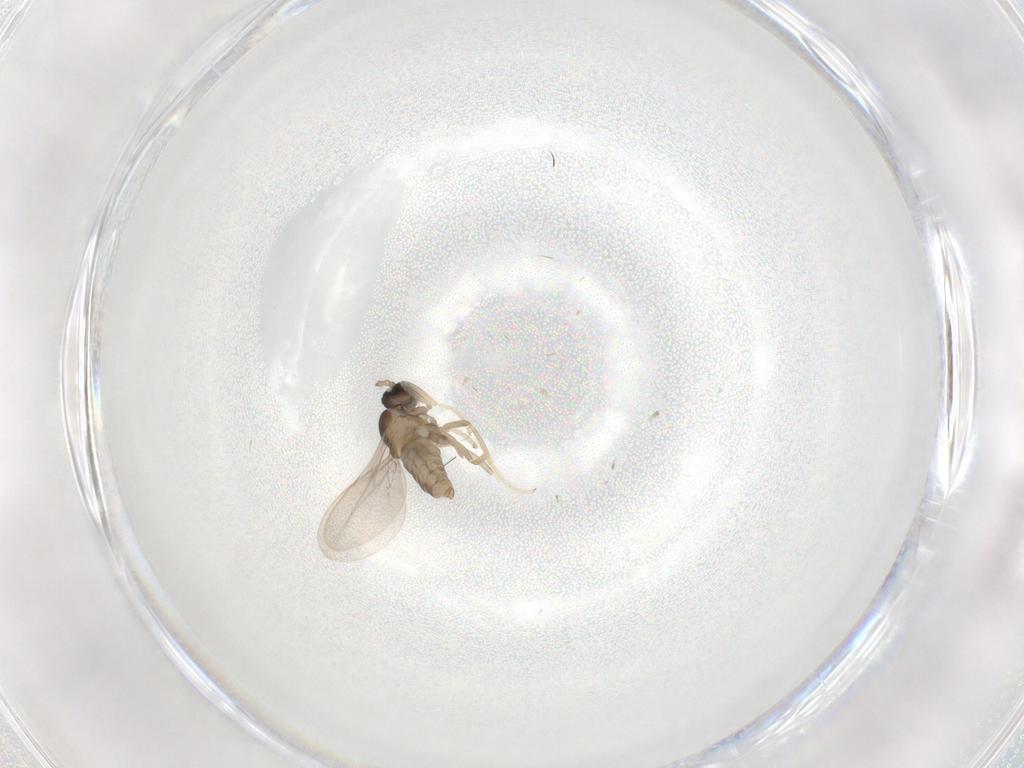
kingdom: Animalia
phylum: Arthropoda
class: Insecta
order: Diptera
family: Cecidomyiidae
